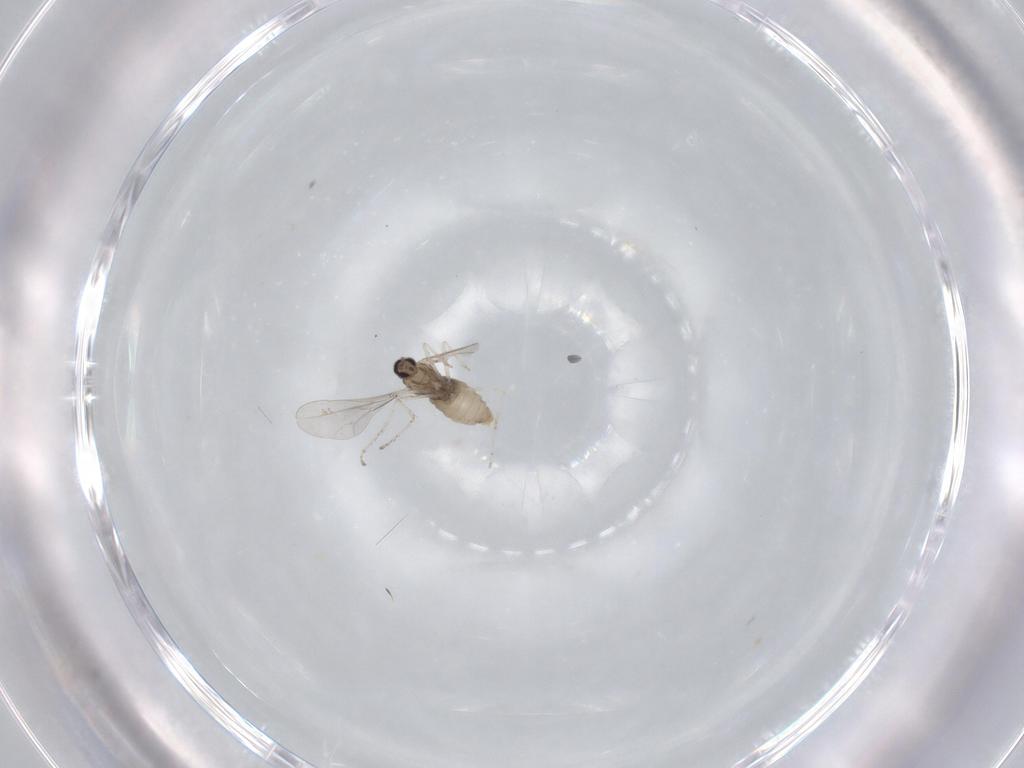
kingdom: Animalia
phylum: Arthropoda
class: Insecta
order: Diptera
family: Cecidomyiidae
